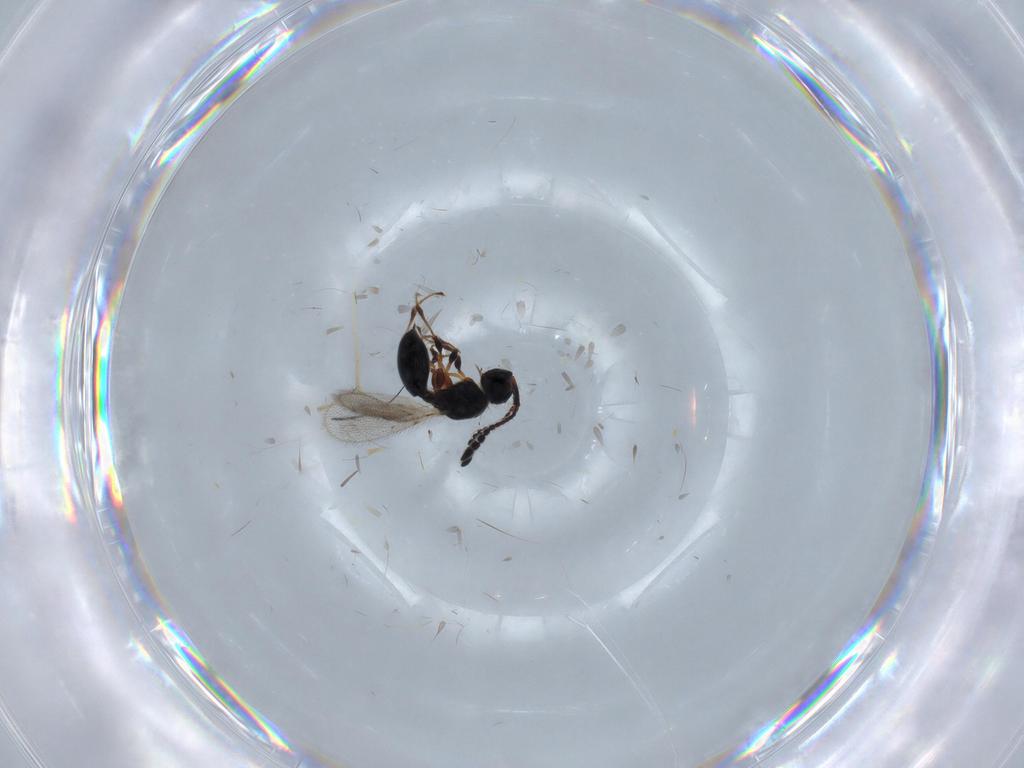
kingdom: Animalia
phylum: Arthropoda
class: Insecta
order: Hymenoptera
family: Diapriidae
